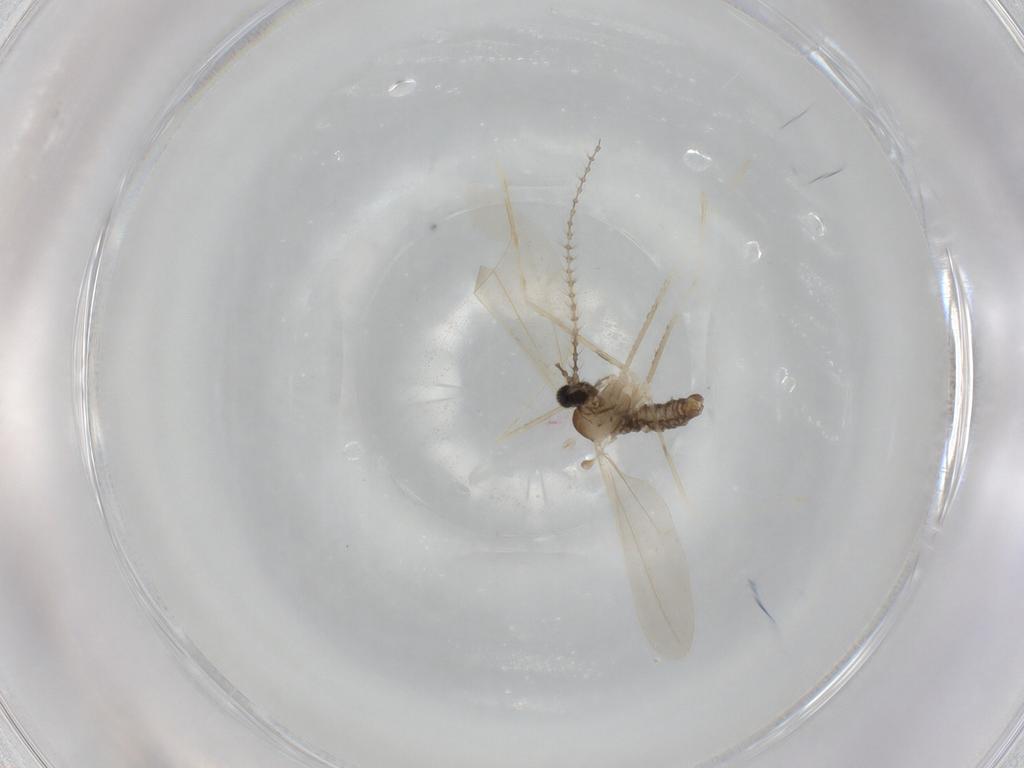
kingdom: Animalia
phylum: Arthropoda
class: Insecta
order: Diptera
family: Cecidomyiidae
